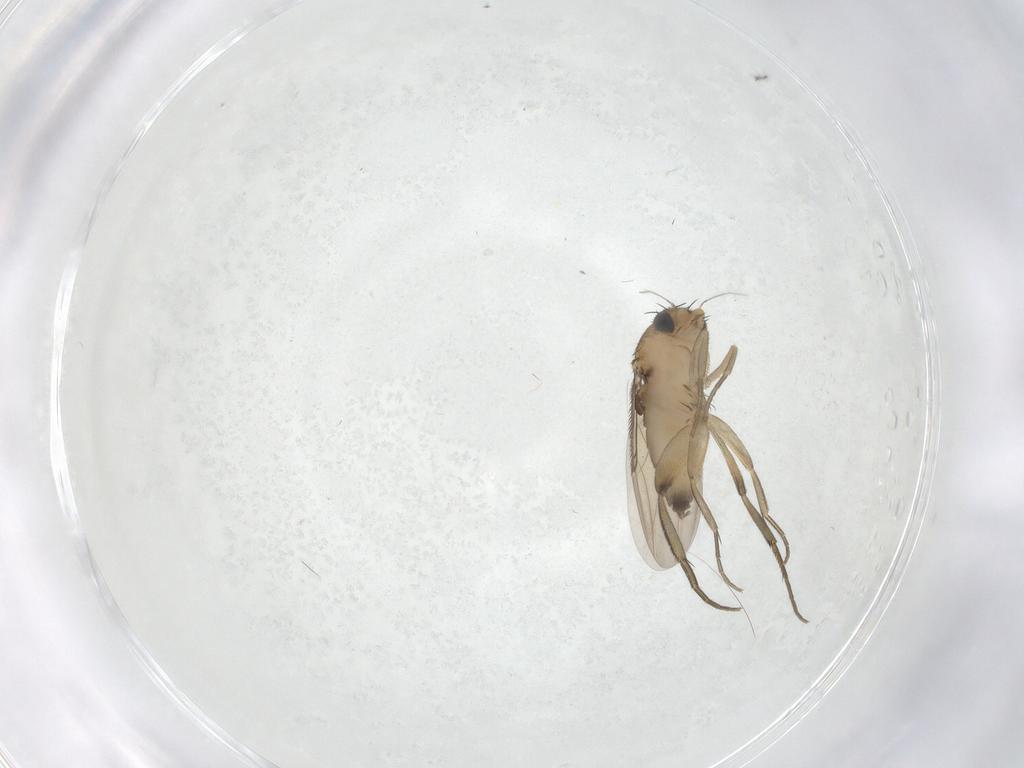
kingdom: Animalia
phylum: Arthropoda
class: Insecta
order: Diptera
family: Phoridae
